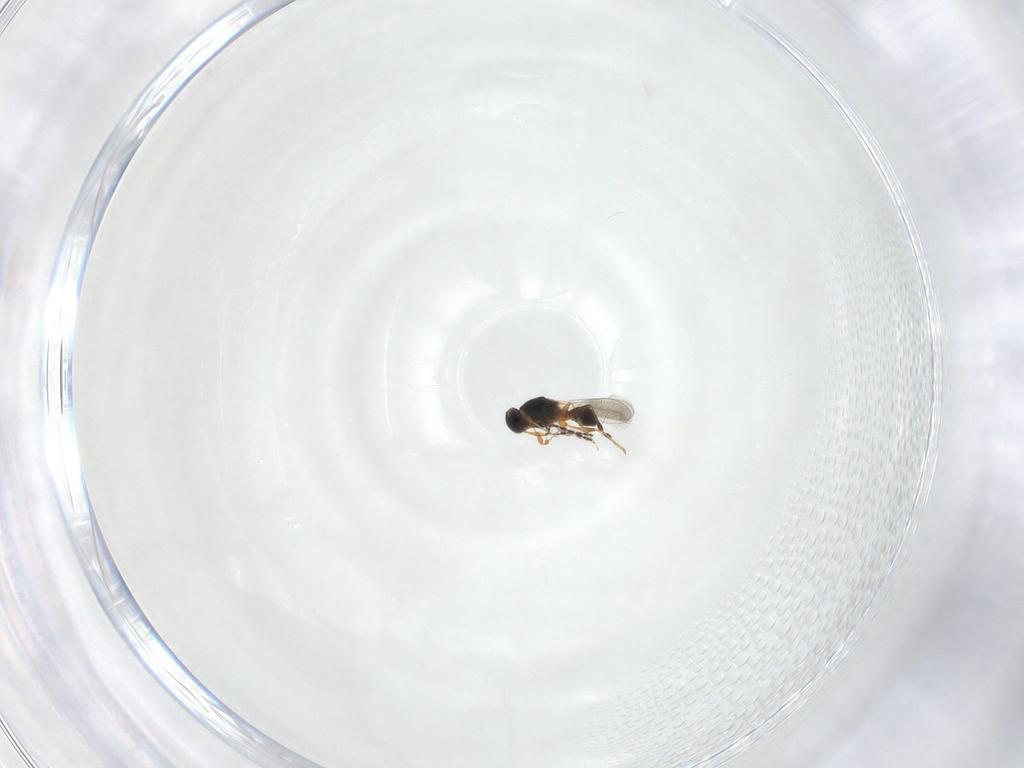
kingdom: Animalia
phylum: Arthropoda
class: Insecta
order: Hymenoptera
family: Platygastridae
